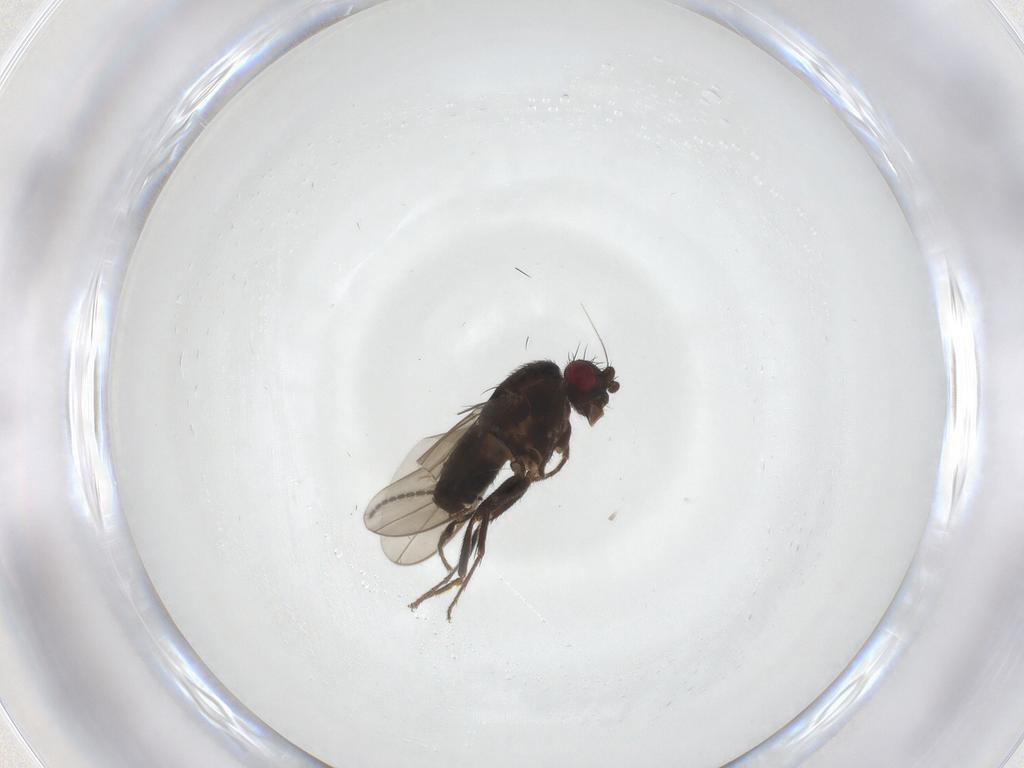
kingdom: Animalia
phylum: Arthropoda
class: Insecta
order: Diptera
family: Sphaeroceridae
